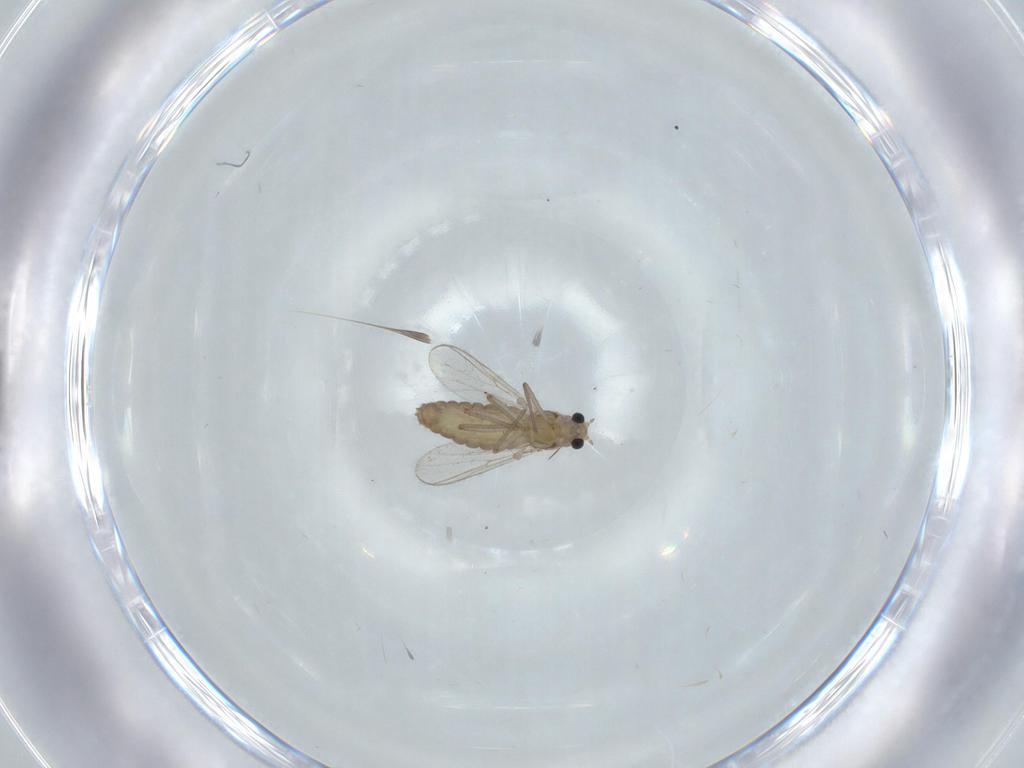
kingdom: Animalia
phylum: Arthropoda
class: Insecta
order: Diptera
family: Chironomidae
